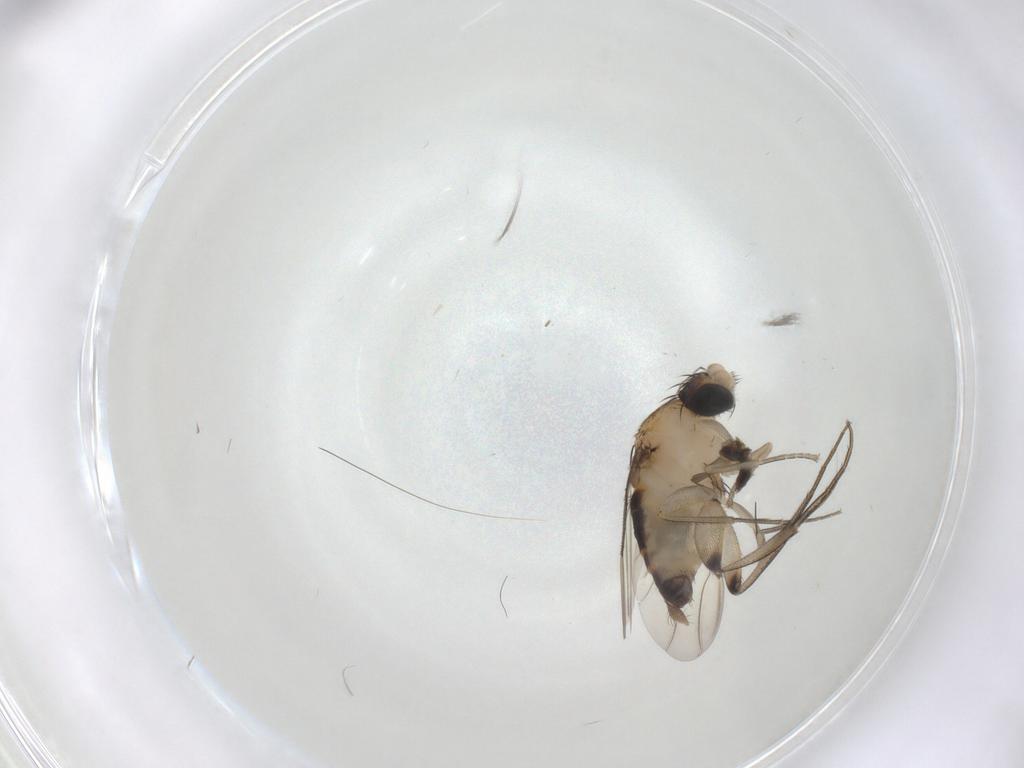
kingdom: Animalia
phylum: Arthropoda
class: Insecta
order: Diptera
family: Phoridae
